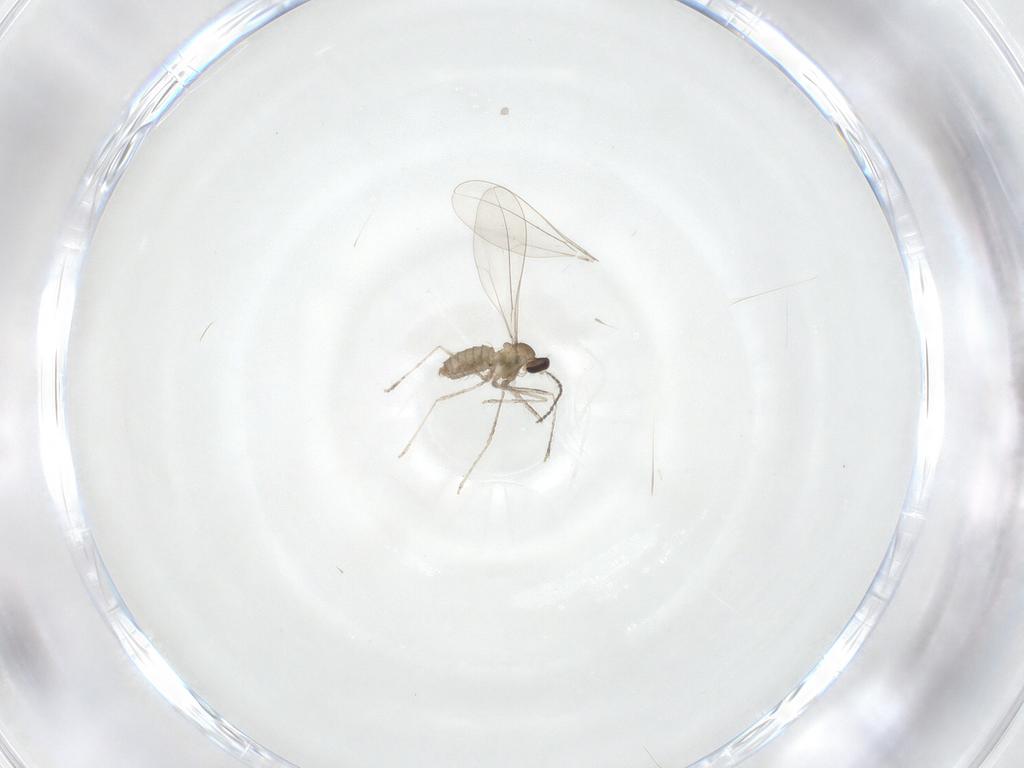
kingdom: Animalia
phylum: Arthropoda
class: Insecta
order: Diptera
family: Cecidomyiidae
